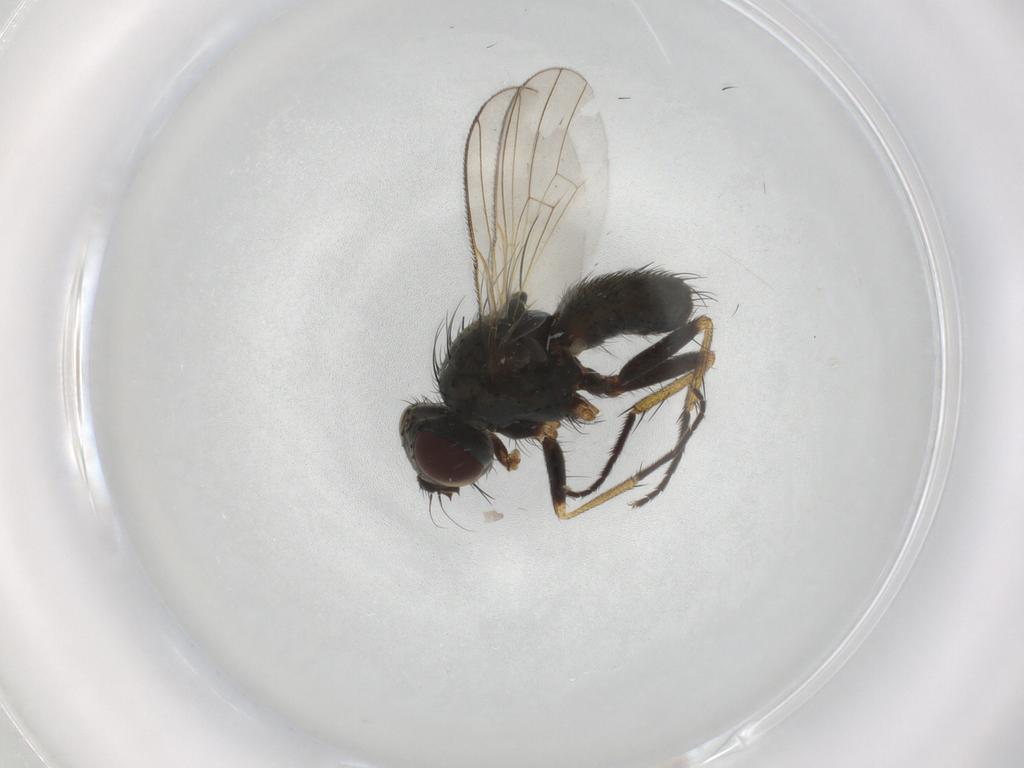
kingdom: Animalia
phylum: Arthropoda
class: Insecta
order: Diptera
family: Muscidae
